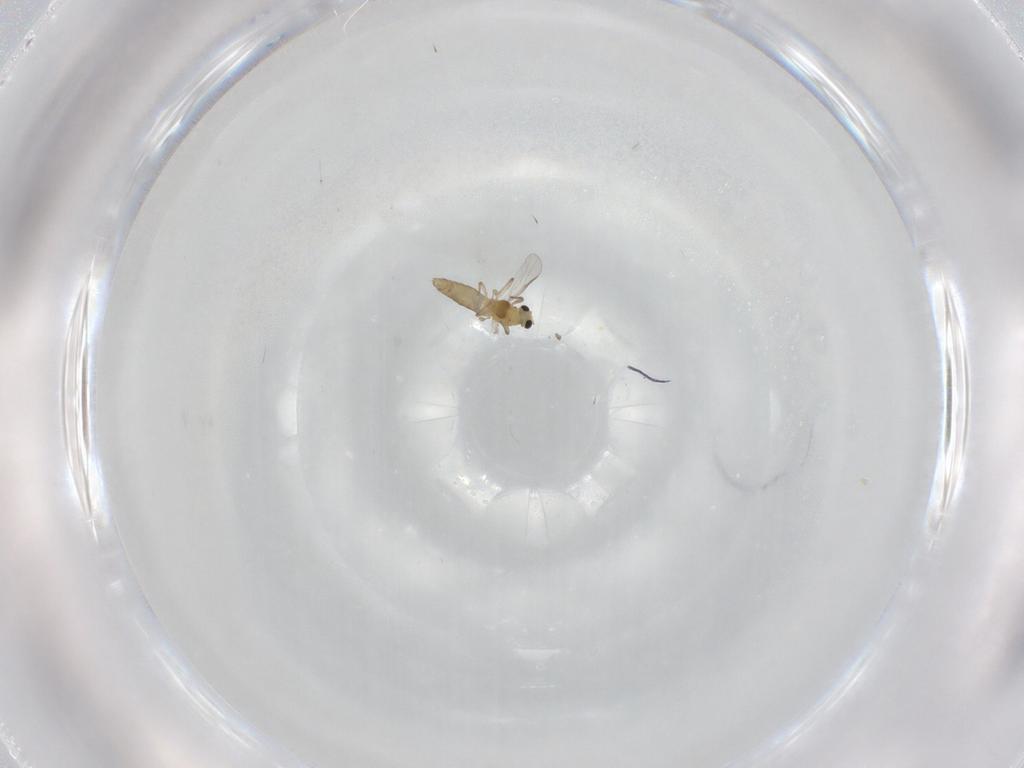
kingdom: Animalia
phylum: Arthropoda
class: Insecta
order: Diptera
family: Chironomidae
